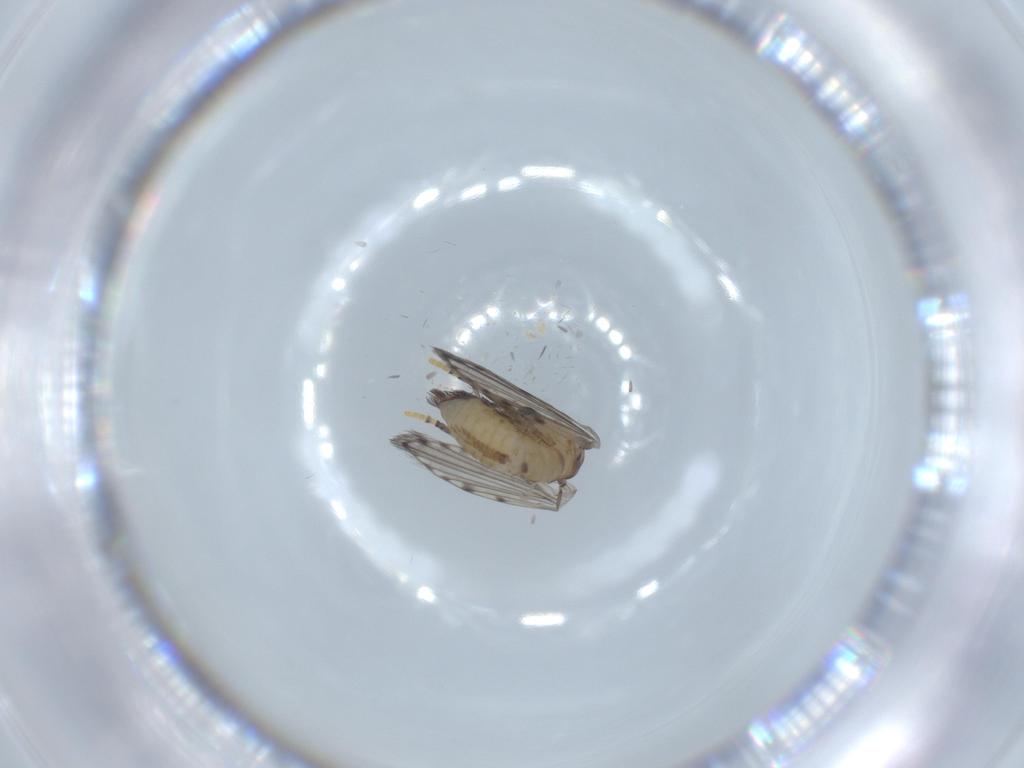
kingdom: Animalia
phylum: Arthropoda
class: Insecta
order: Diptera
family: Psychodidae
